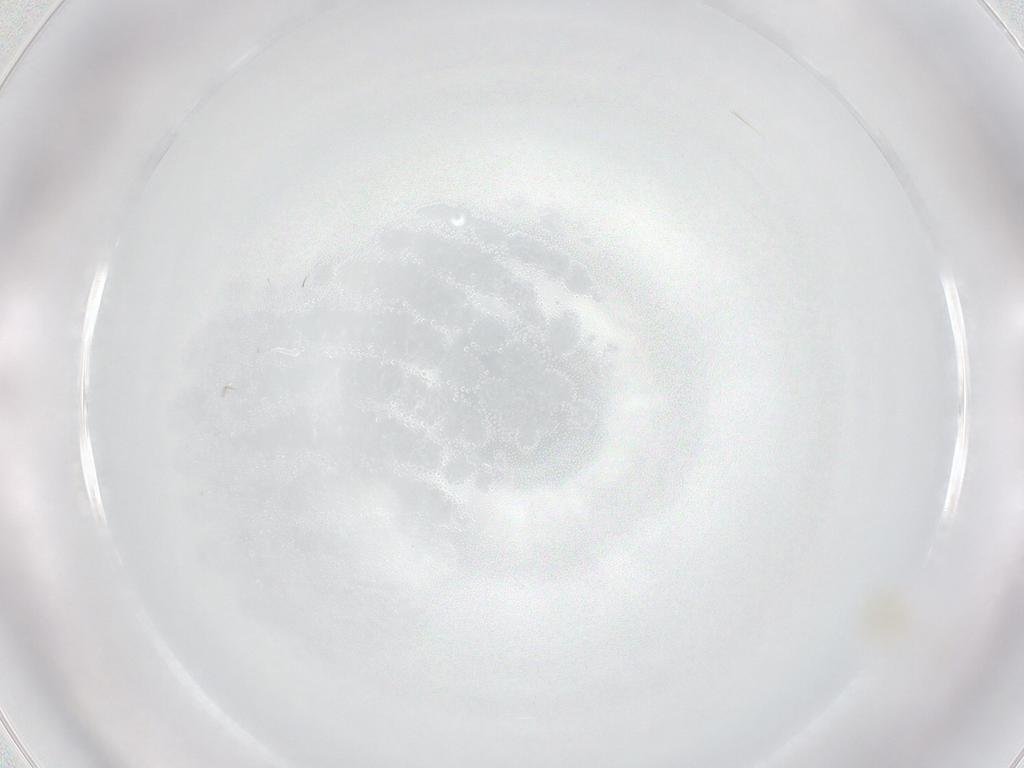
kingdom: Animalia
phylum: Arthropoda
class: Arachnida
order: Trombidiformes
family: Tetranychidae
